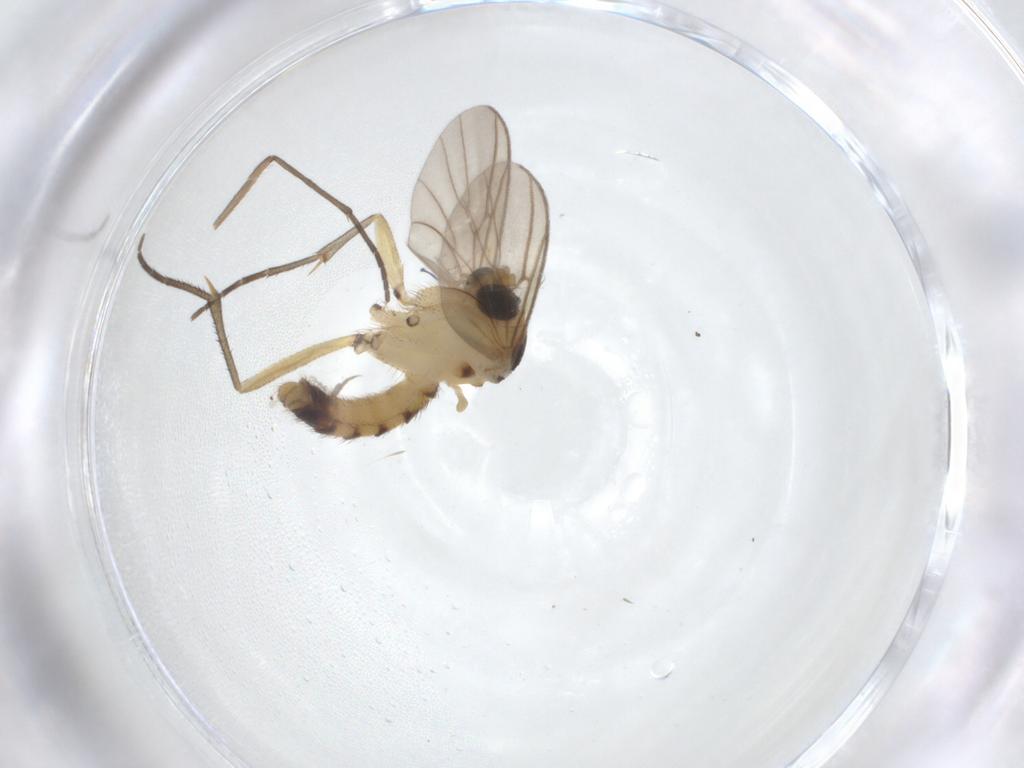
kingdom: Animalia
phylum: Arthropoda
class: Insecta
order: Diptera
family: Sciaridae
